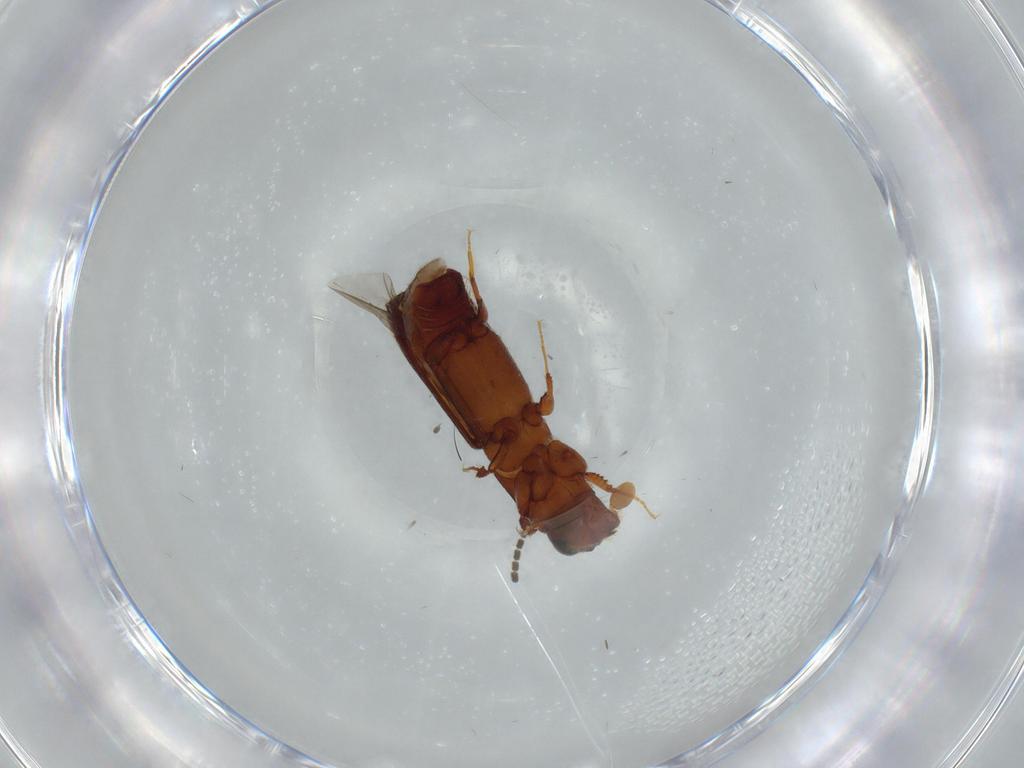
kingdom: Animalia
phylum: Arthropoda
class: Insecta
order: Coleoptera
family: Curculionidae
